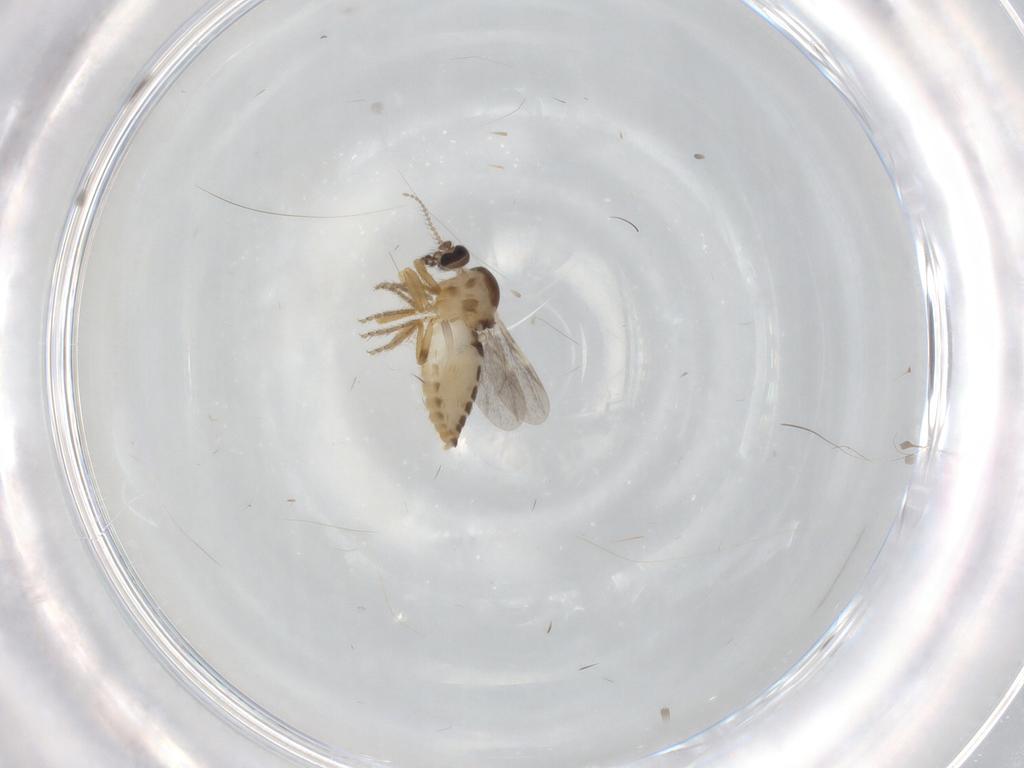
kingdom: Animalia
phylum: Arthropoda
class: Insecta
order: Diptera
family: Ceratopogonidae
